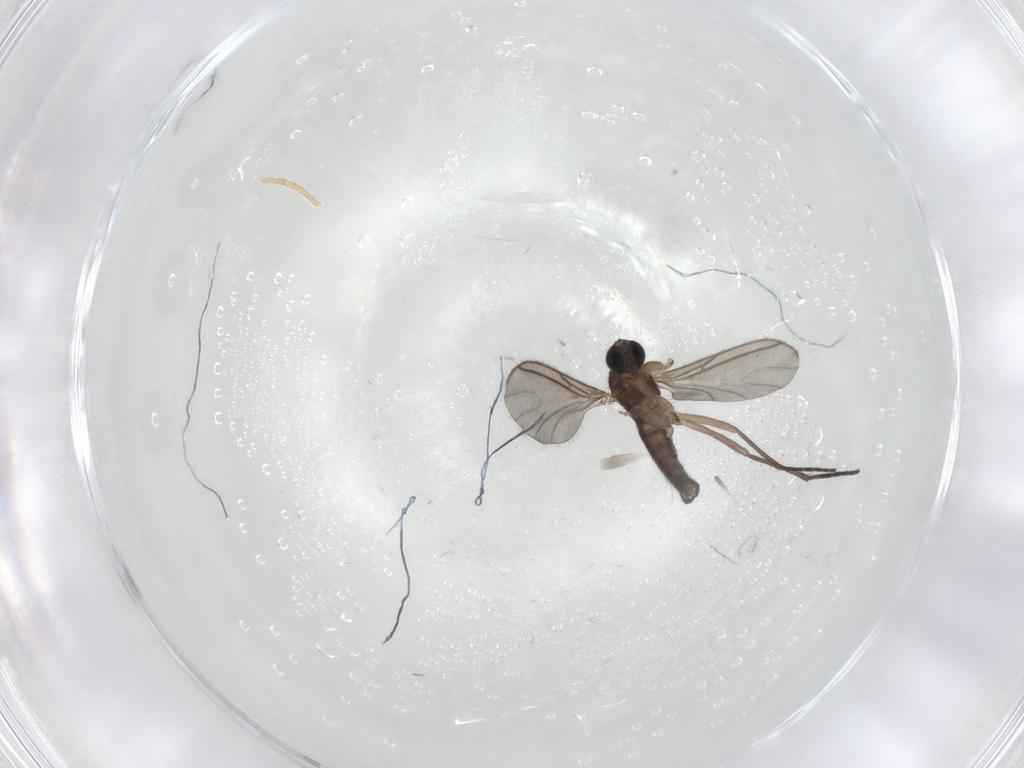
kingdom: Animalia
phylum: Arthropoda
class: Insecta
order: Diptera
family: Sciaridae
